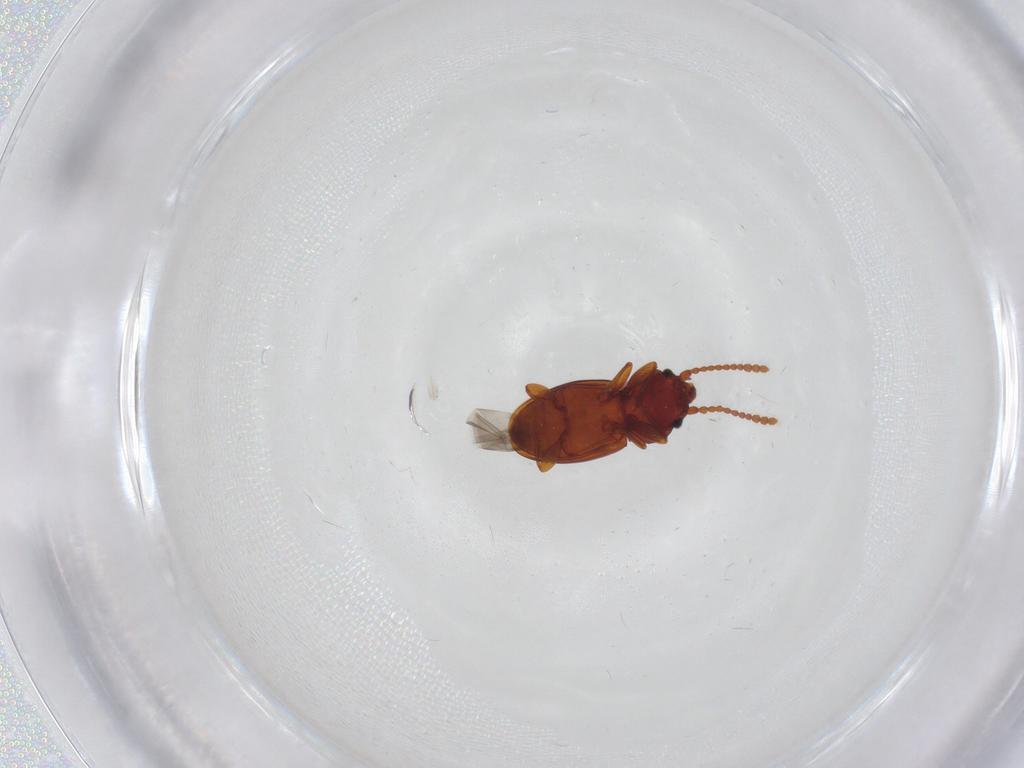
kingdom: Animalia
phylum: Arthropoda
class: Insecta
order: Coleoptera
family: Laemophloeidae
